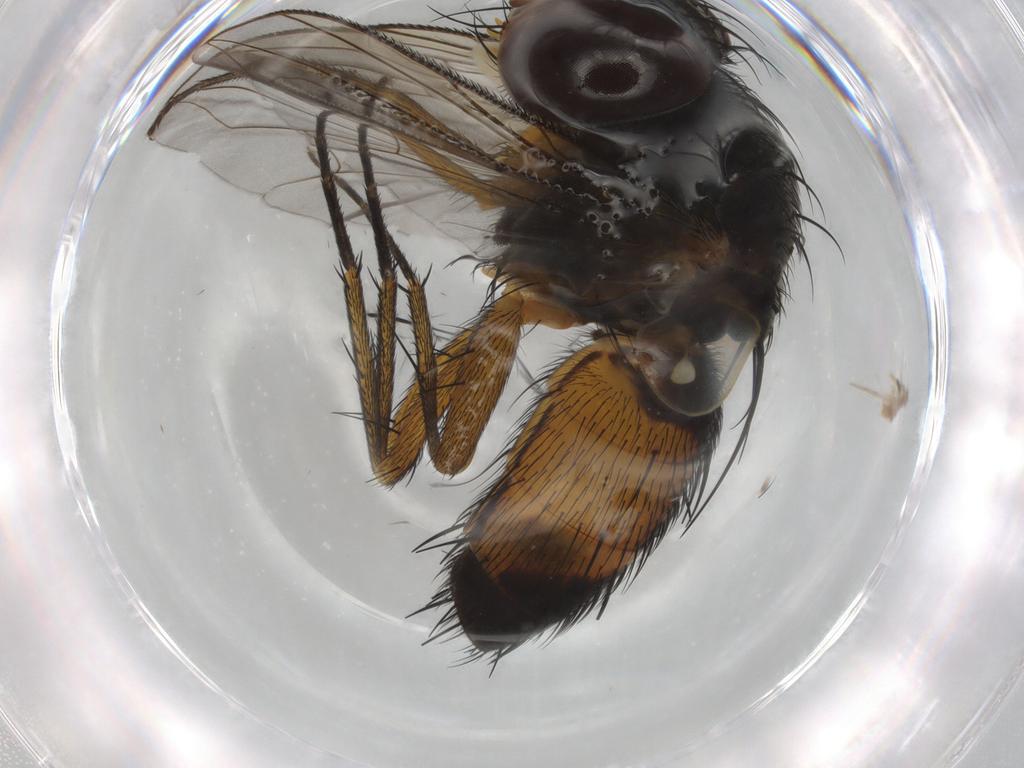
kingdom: Animalia
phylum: Arthropoda
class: Insecta
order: Diptera
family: Tachinidae
